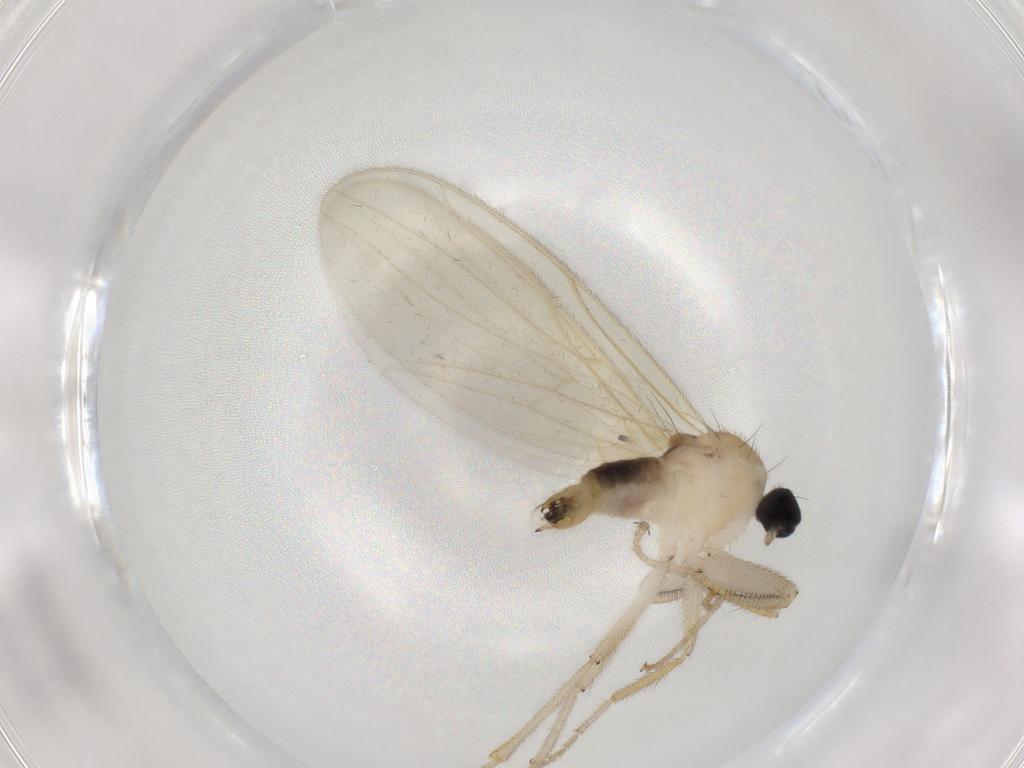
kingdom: Animalia
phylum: Arthropoda
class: Insecta
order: Diptera
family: Hybotidae
